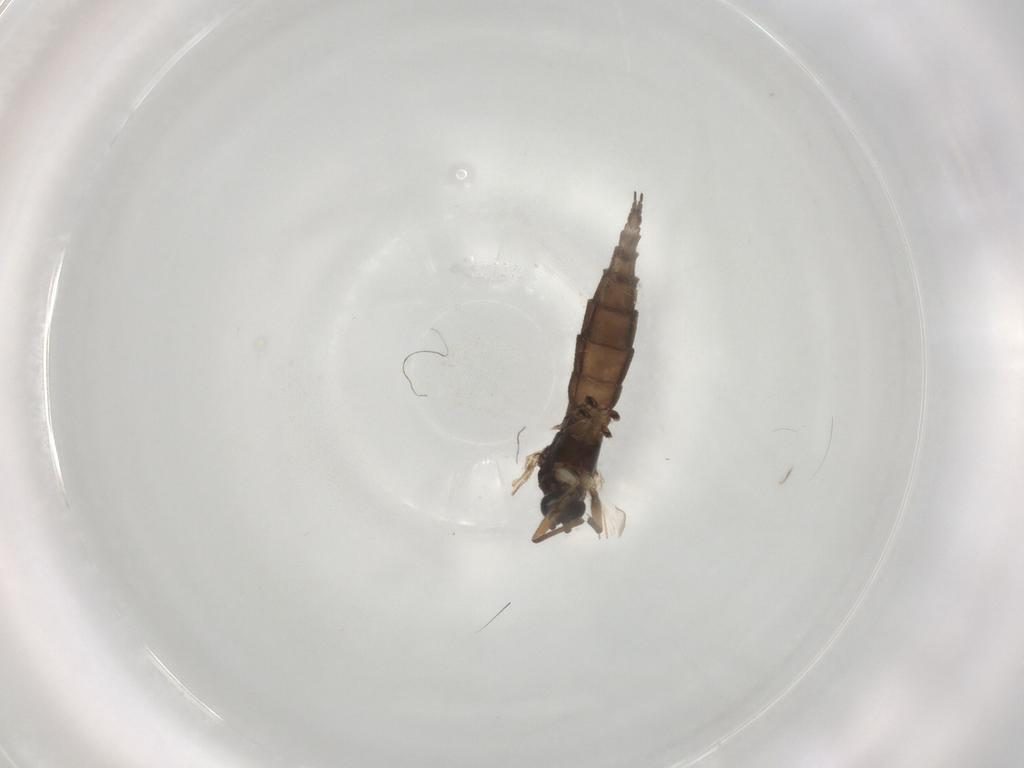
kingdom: Animalia
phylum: Arthropoda
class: Insecta
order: Diptera
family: Sciaridae
